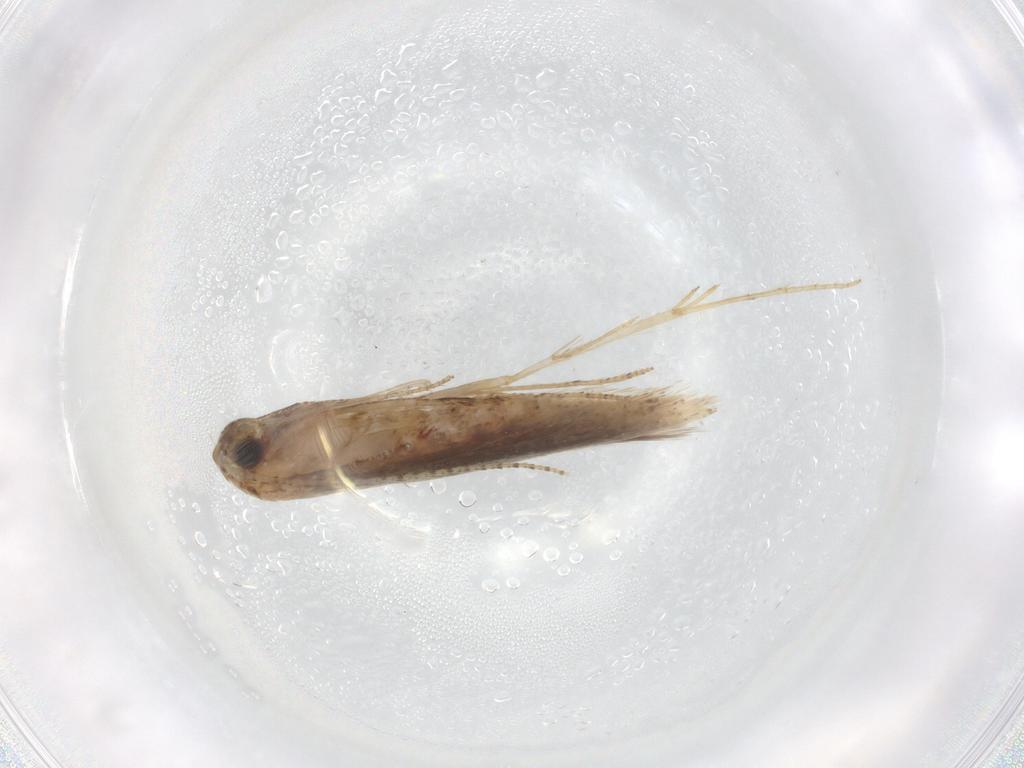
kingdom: Animalia
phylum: Arthropoda
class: Insecta
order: Lepidoptera
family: Bedelliidae
